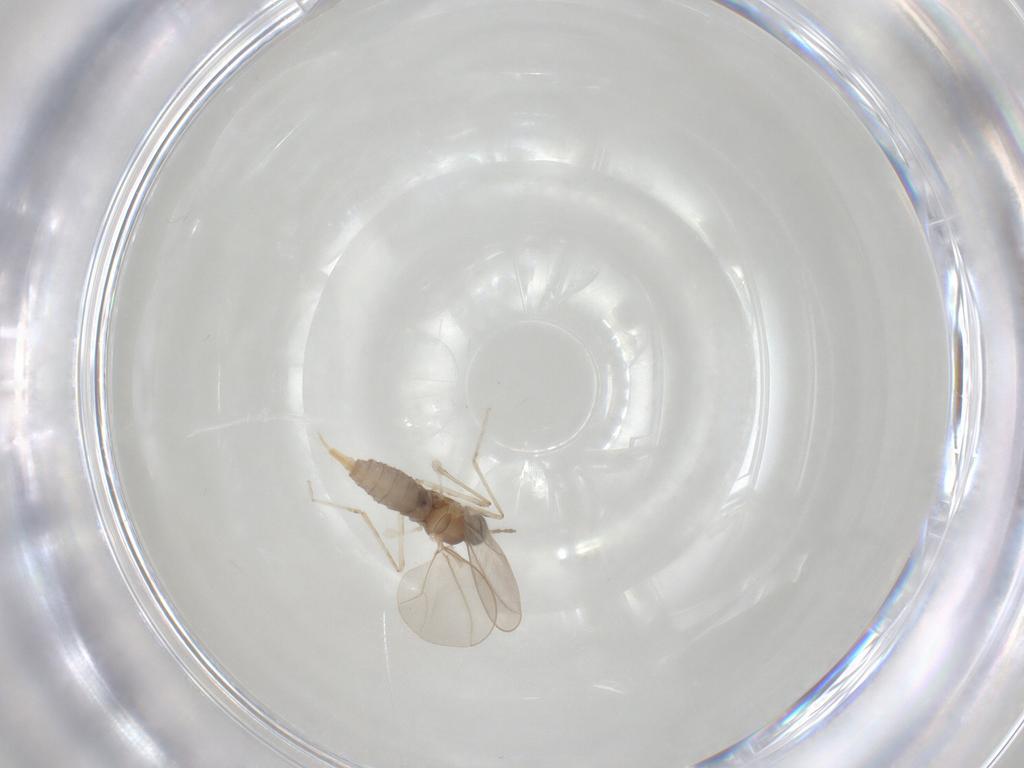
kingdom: Animalia
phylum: Arthropoda
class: Insecta
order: Diptera
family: Cecidomyiidae
